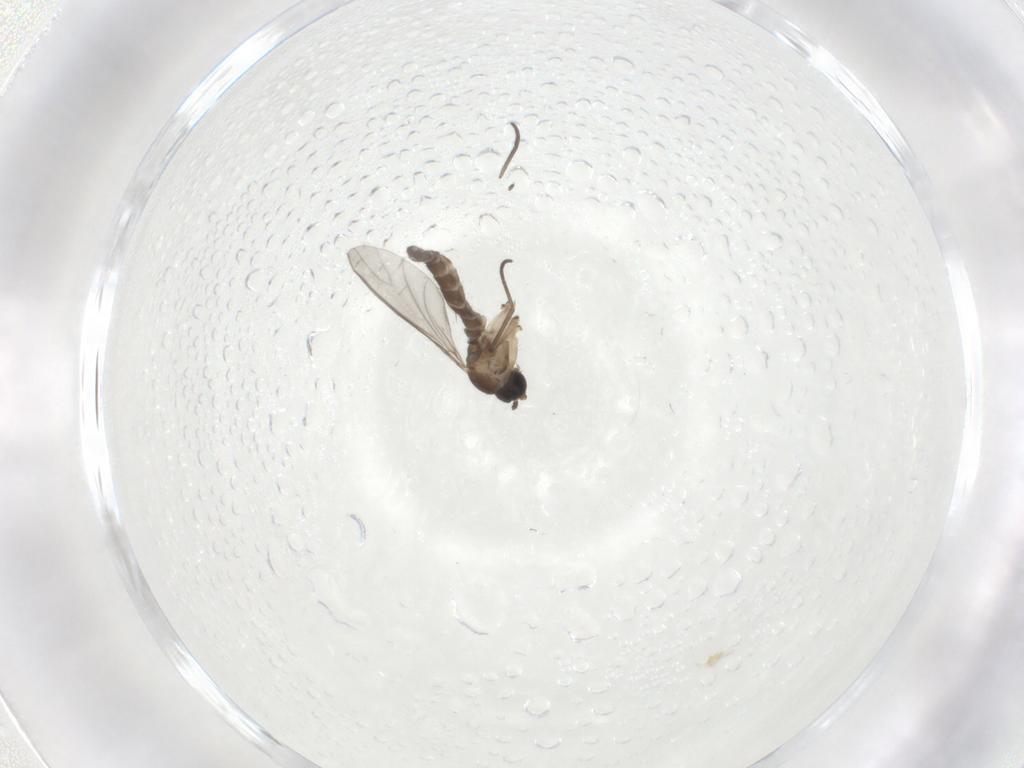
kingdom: Animalia
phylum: Arthropoda
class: Insecta
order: Diptera
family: Sciaridae
